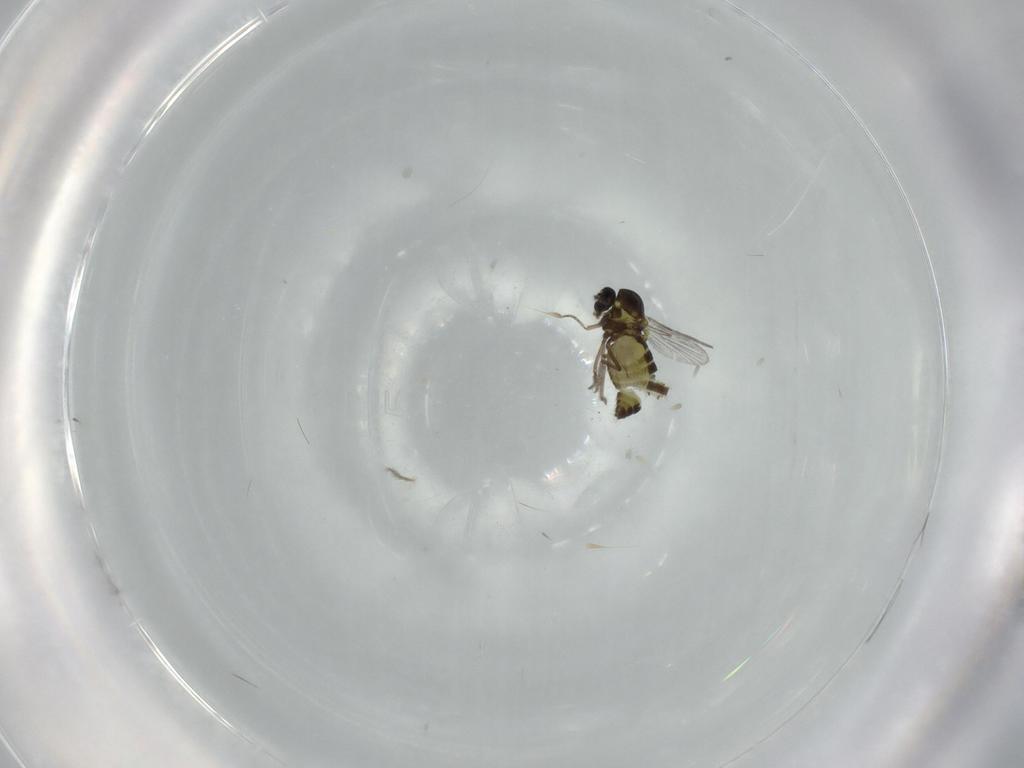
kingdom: Animalia
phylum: Arthropoda
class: Insecta
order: Diptera
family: Ceratopogonidae
